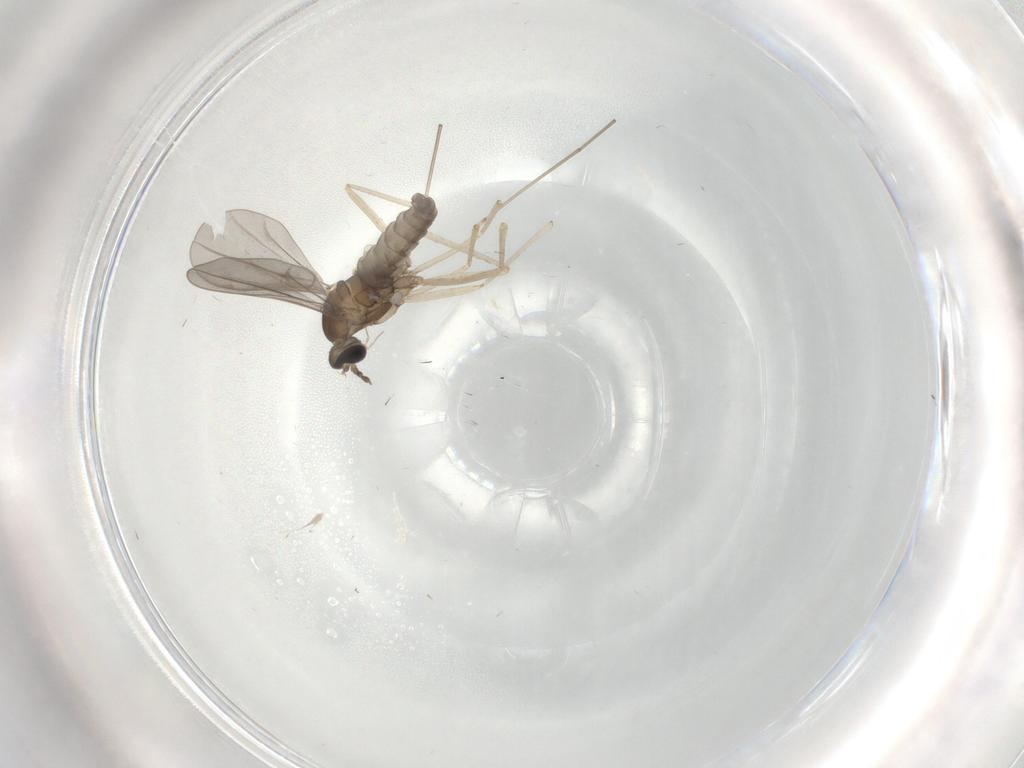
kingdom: Animalia
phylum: Arthropoda
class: Insecta
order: Diptera
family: Cecidomyiidae
